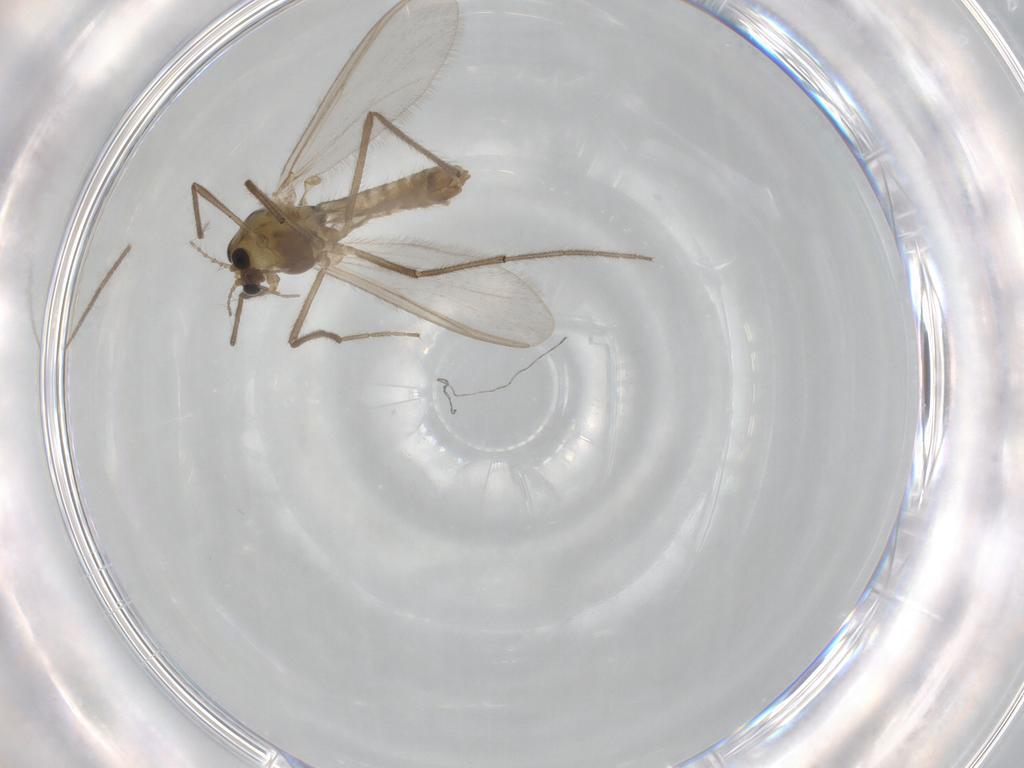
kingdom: Animalia
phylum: Arthropoda
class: Insecta
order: Diptera
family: Chironomidae
